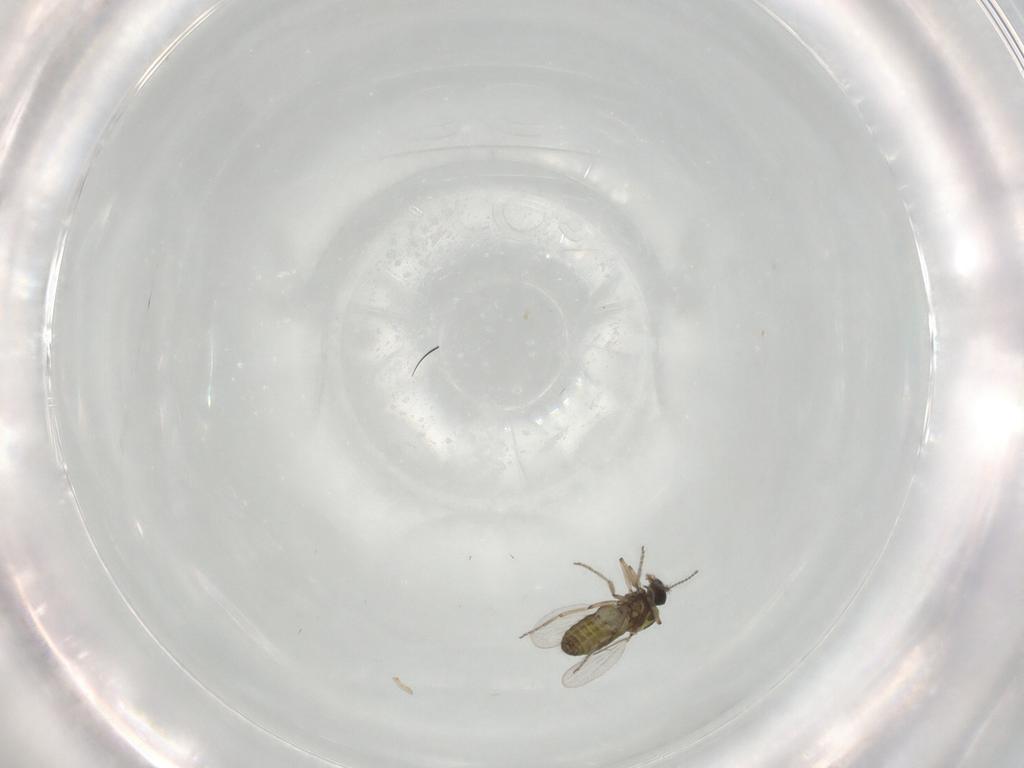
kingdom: Animalia
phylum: Arthropoda
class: Insecta
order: Diptera
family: Ceratopogonidae
